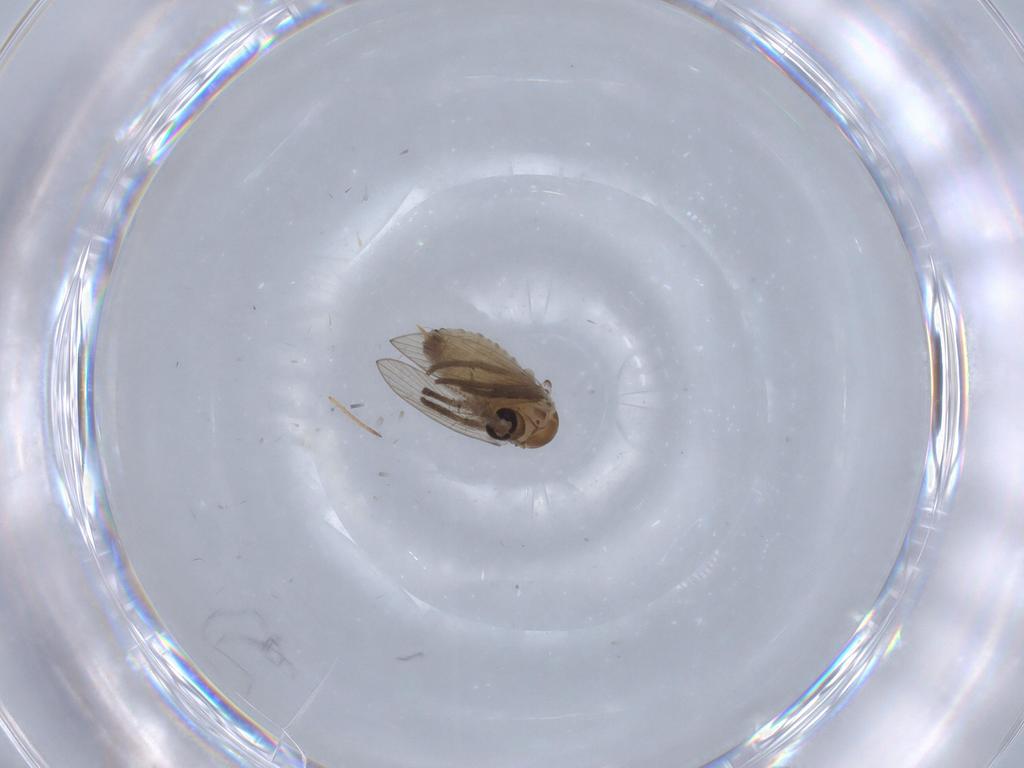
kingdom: Animalia
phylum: Arthropoda
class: Insecta
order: Diptera
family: Psychodidae
